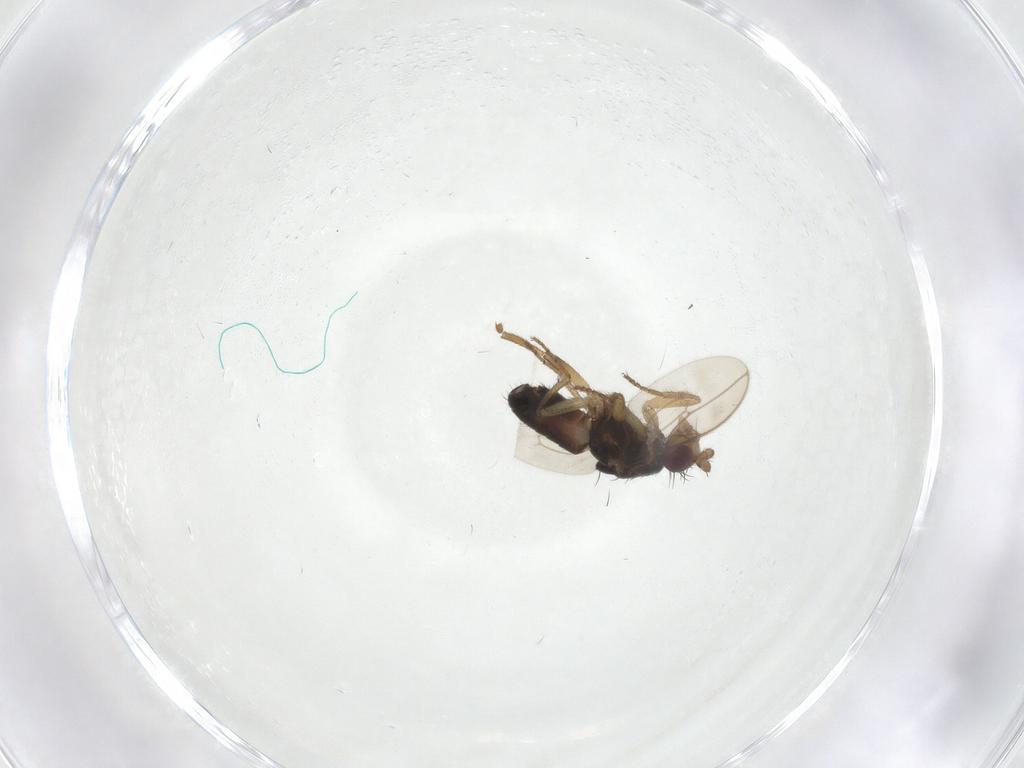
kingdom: Animalia
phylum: Arthropoda
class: Insecta
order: Diptera
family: Sphaeroceridae
